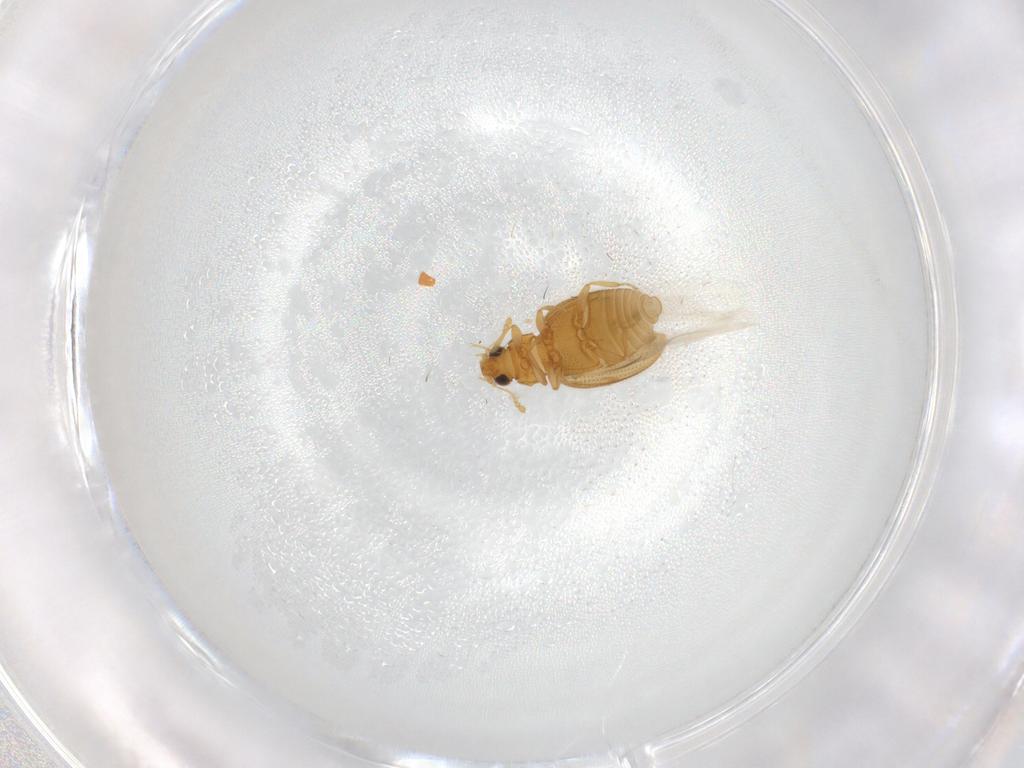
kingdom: Animalia
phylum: Arthropoda
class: Insecta
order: Coleoptera
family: Latridiidae
